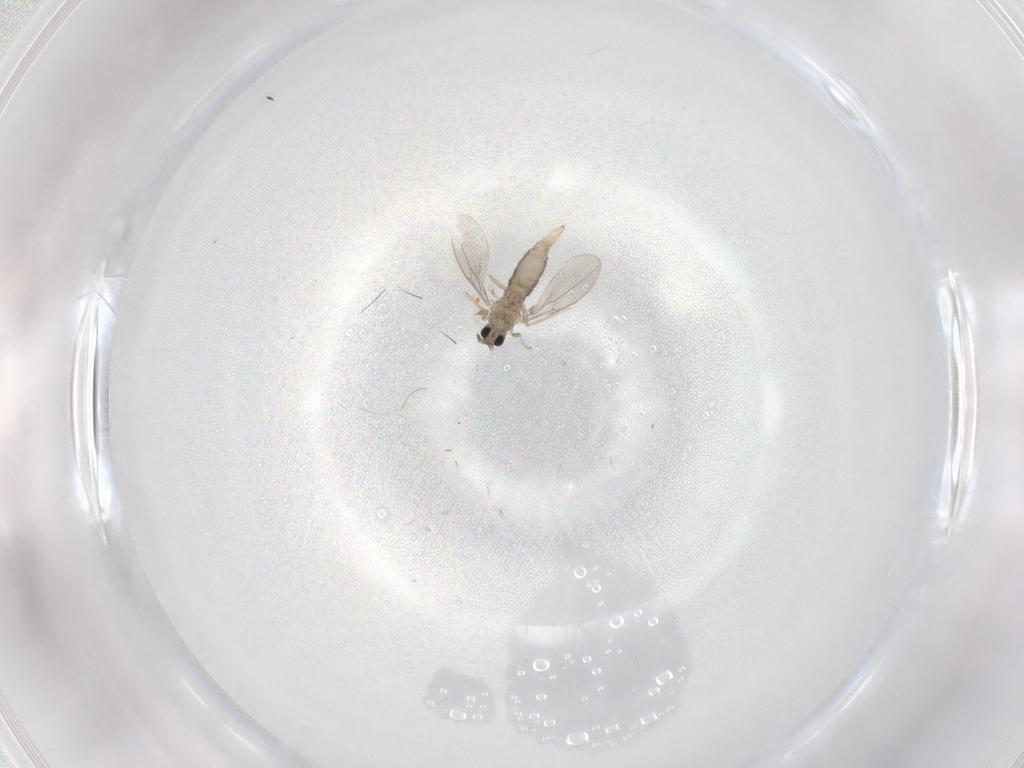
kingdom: Animalia
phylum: Arthropoda
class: Insecta
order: Diptera
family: Cecidomyiidae
